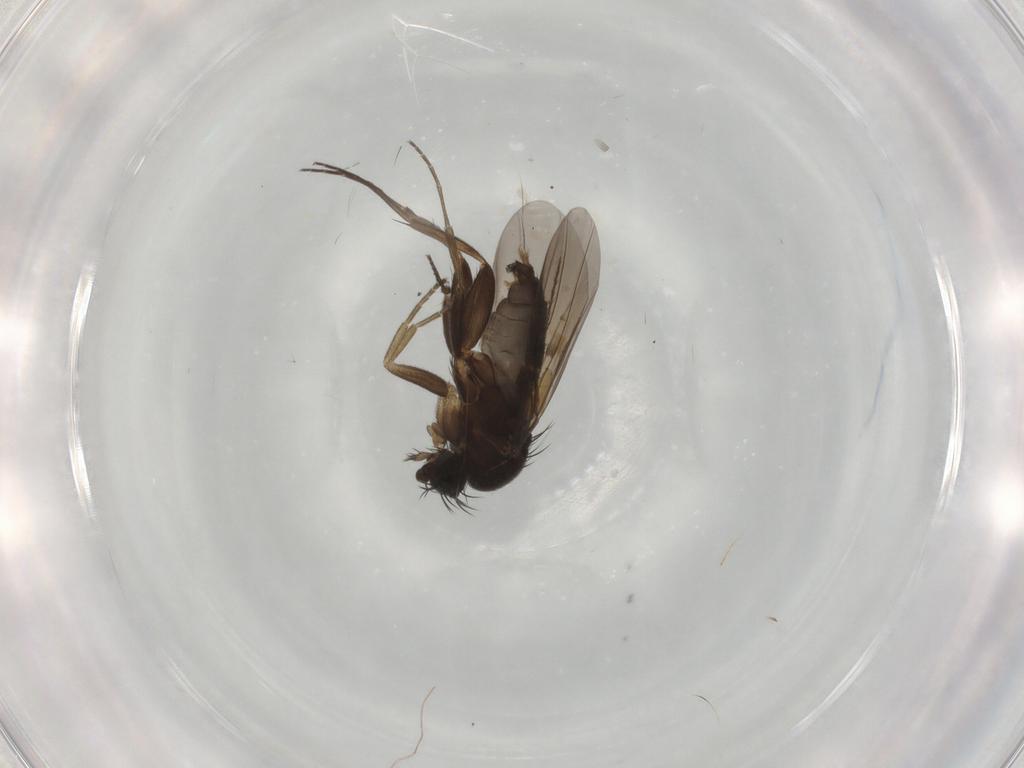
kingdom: Animalia
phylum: Arthropoda
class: Insecta
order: Diptera
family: Phoridae
